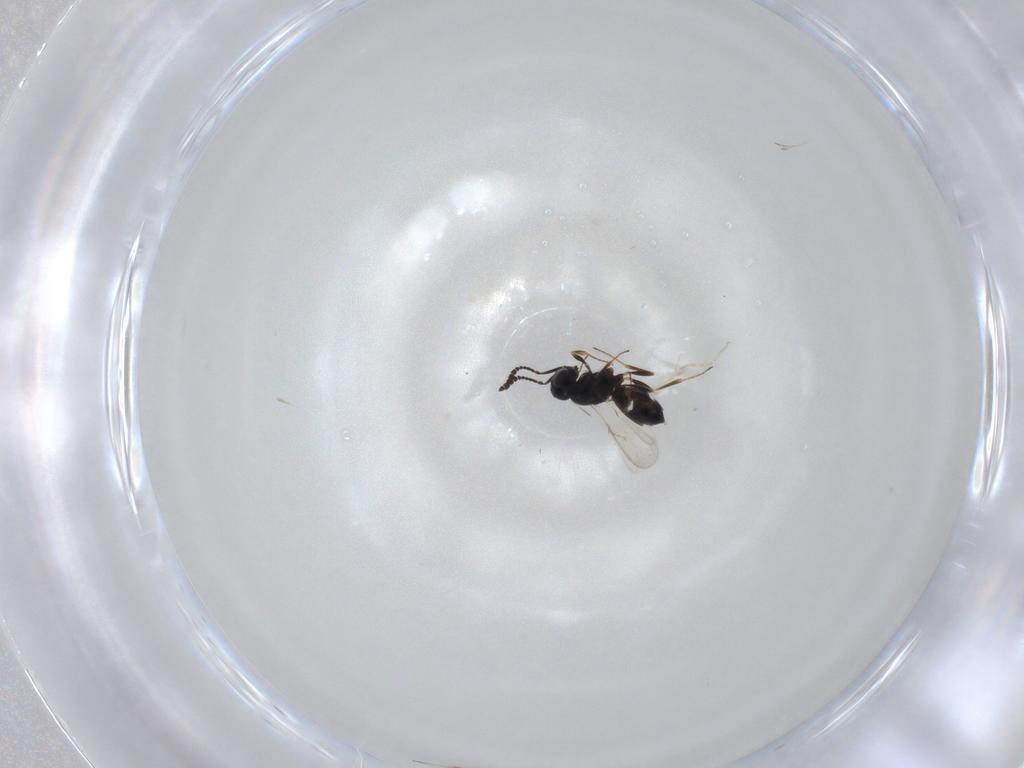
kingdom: Animalia
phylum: Arthropoda
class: Insecta
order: Hymenoptera
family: Scelionidae
